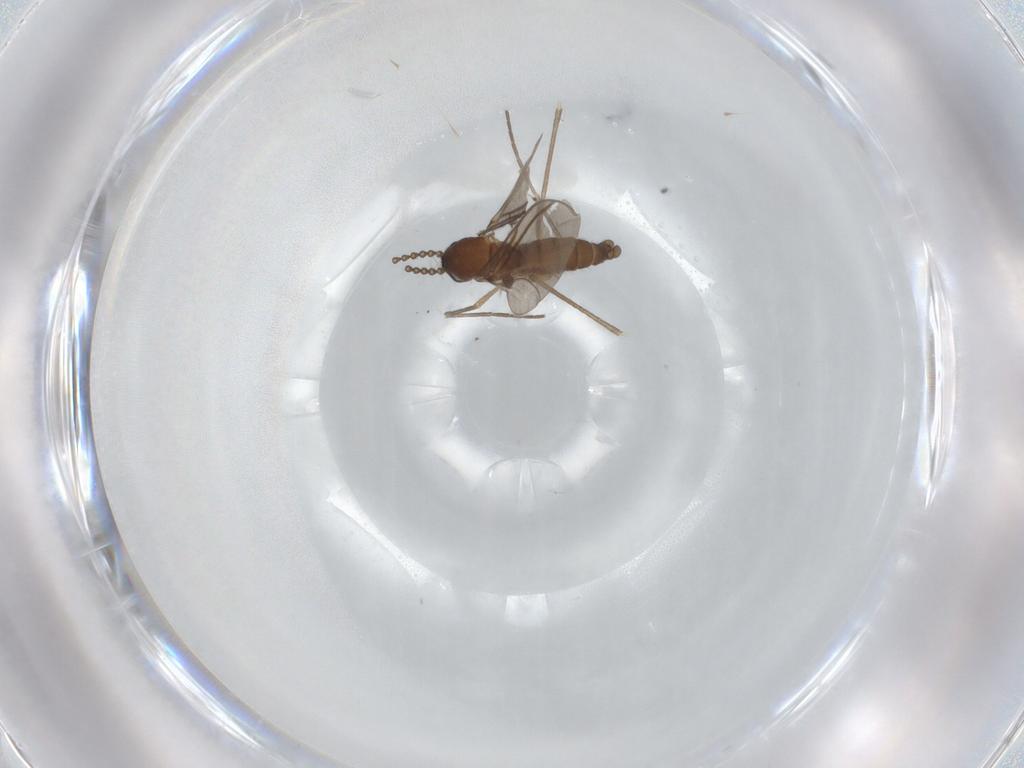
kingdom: Animalia
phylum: Arthropoda
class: Insecta
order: Diptera
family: Sciaridae
